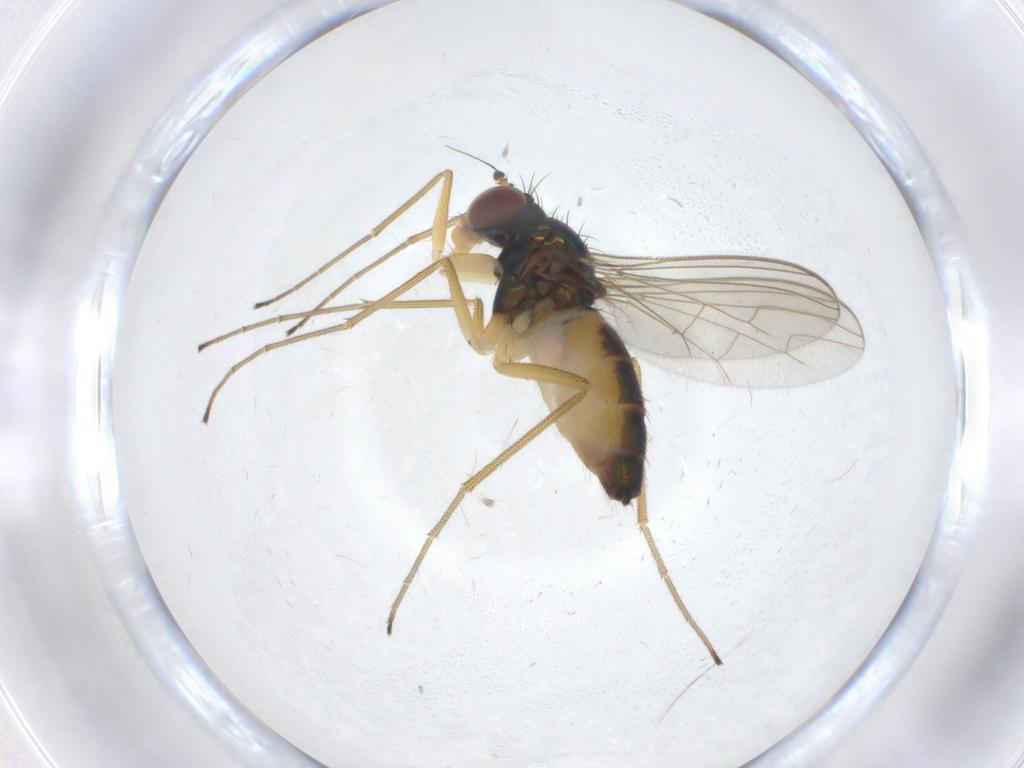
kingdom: Animalia
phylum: Arthropoda
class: Insecta
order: Diptera
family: Dolichopodidae
